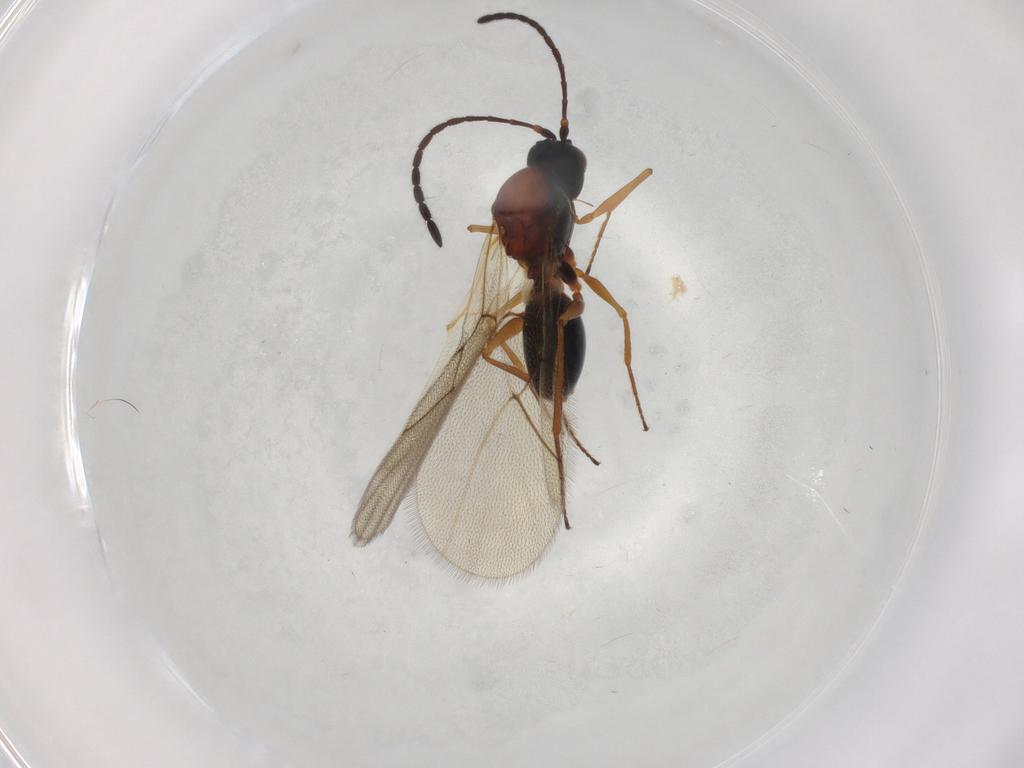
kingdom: Animalia
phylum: Arthropoda
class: Insecta
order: Hymenoptera
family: Figitidae
